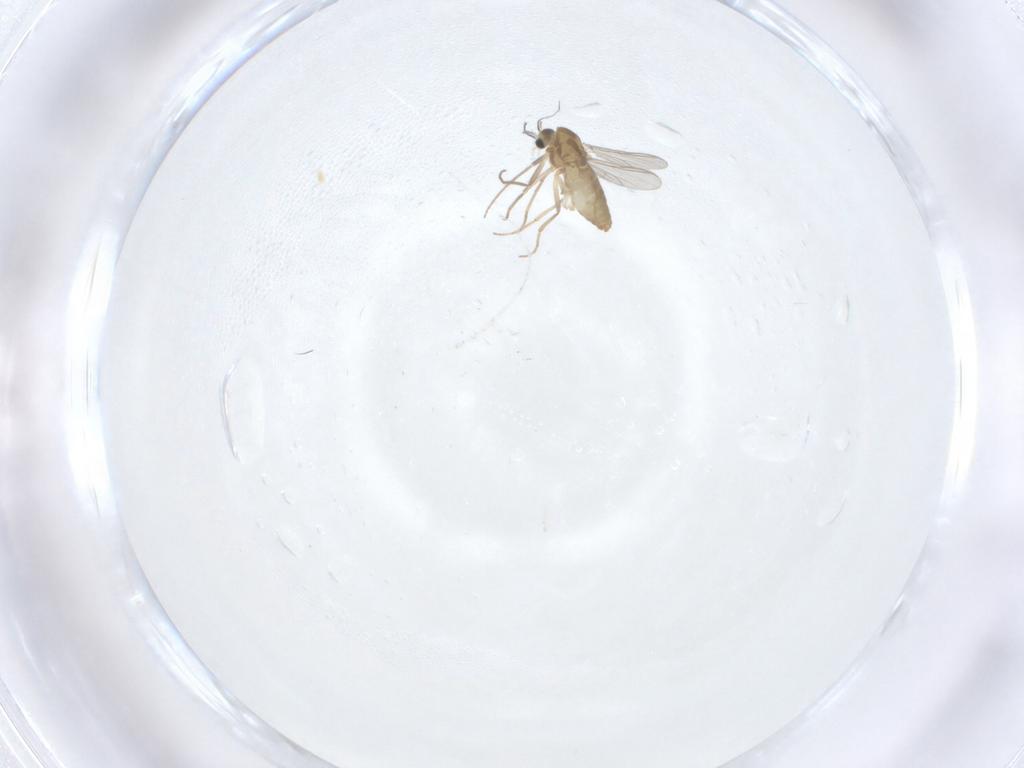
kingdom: Animalia
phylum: Arthropoda
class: Insecta
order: Diptera
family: Chironomidae
